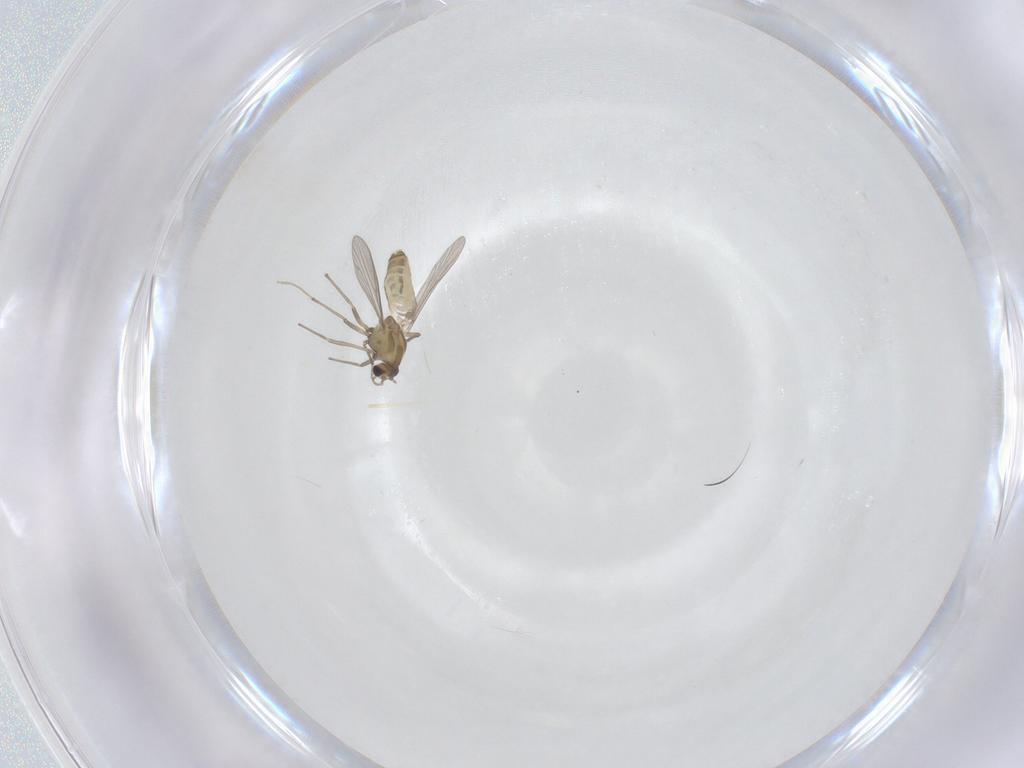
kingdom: Animalia
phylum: Arthropoda
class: Insecta
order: Diptera
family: Chironomidae
